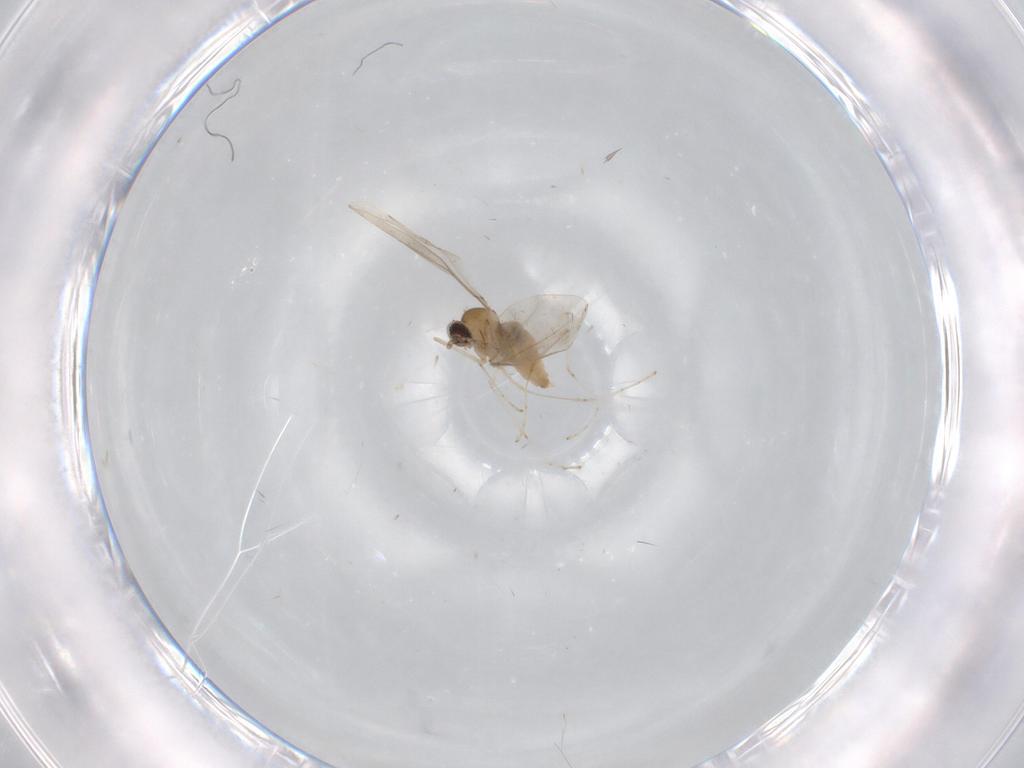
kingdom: Animalia
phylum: Arthropoda
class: Insecta
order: Diptera
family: Cecidomyiidae
